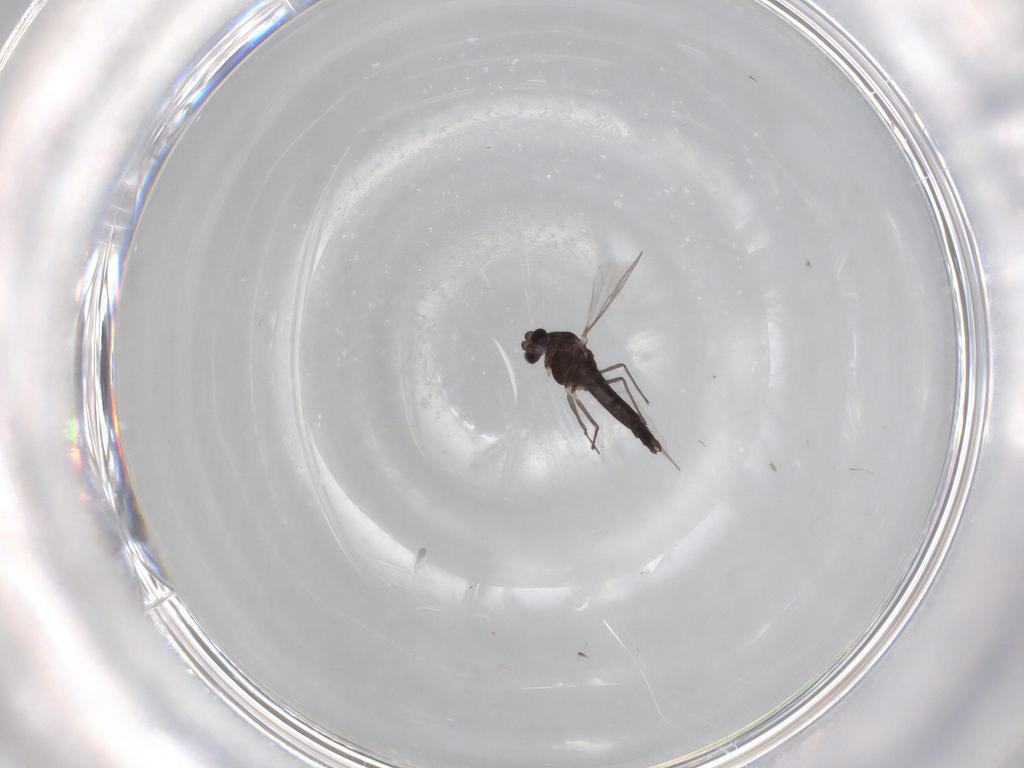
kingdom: Animalia
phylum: Arthropoda
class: Insecta
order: Diptera
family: Chironomidae
